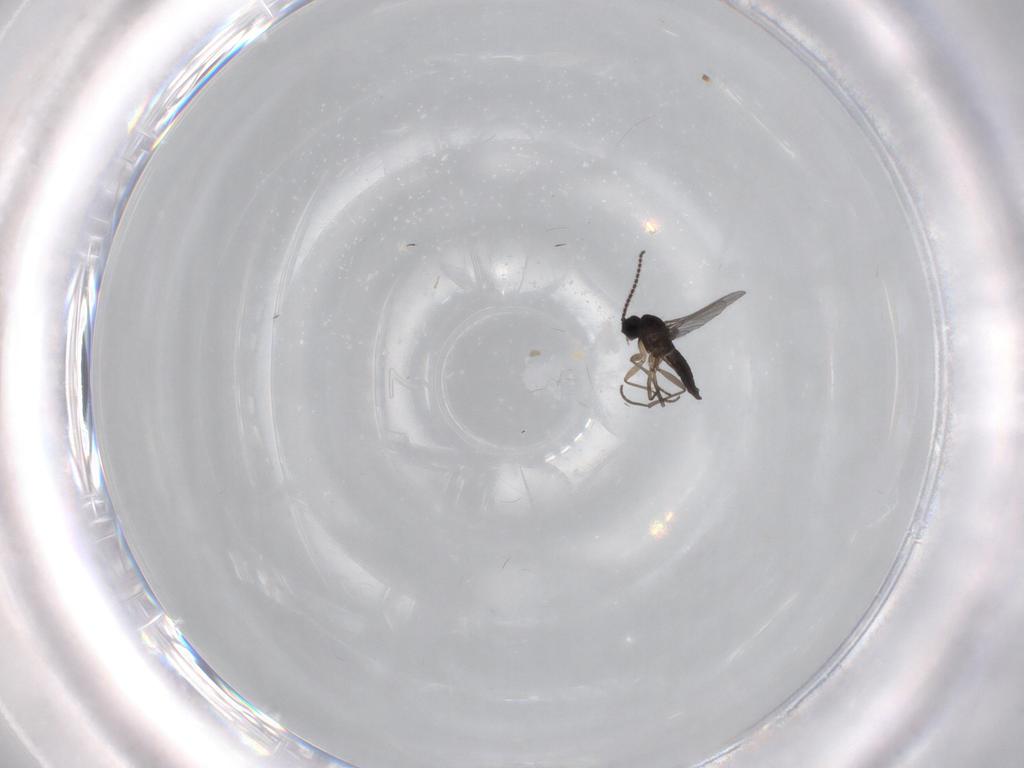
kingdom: Animalia
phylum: Arthropoda
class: Insecta
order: Diptera
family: Sciaridae
